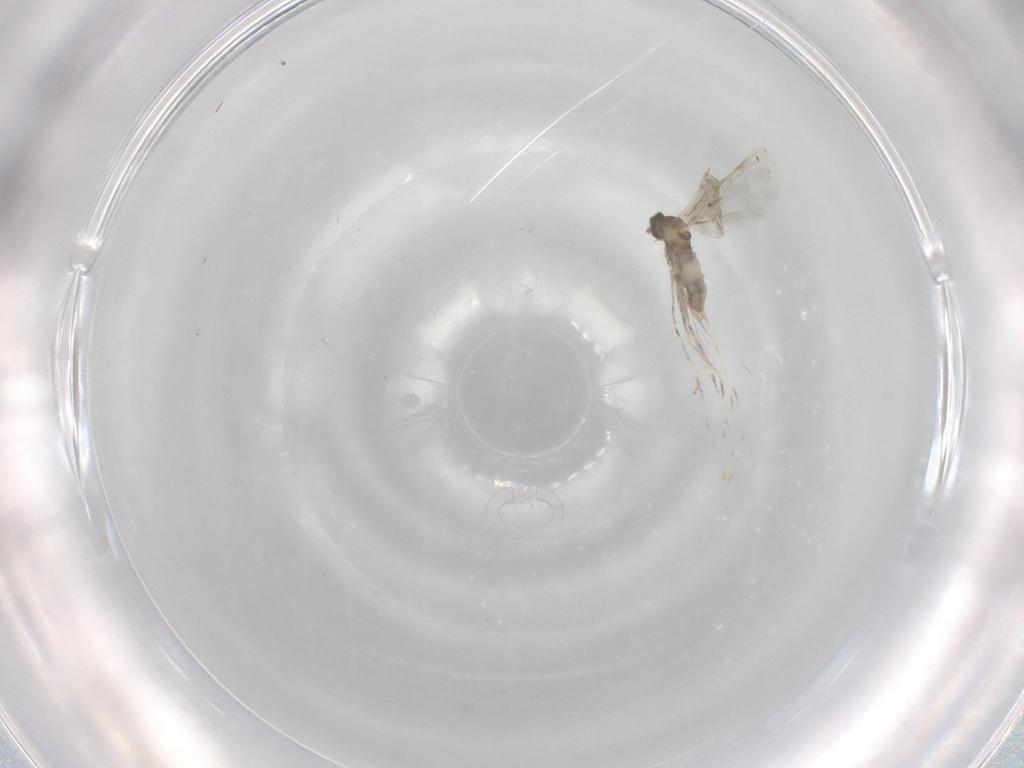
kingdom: Animalia
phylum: Arthropoda
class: Insecta
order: Diptera
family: Chironomidae
